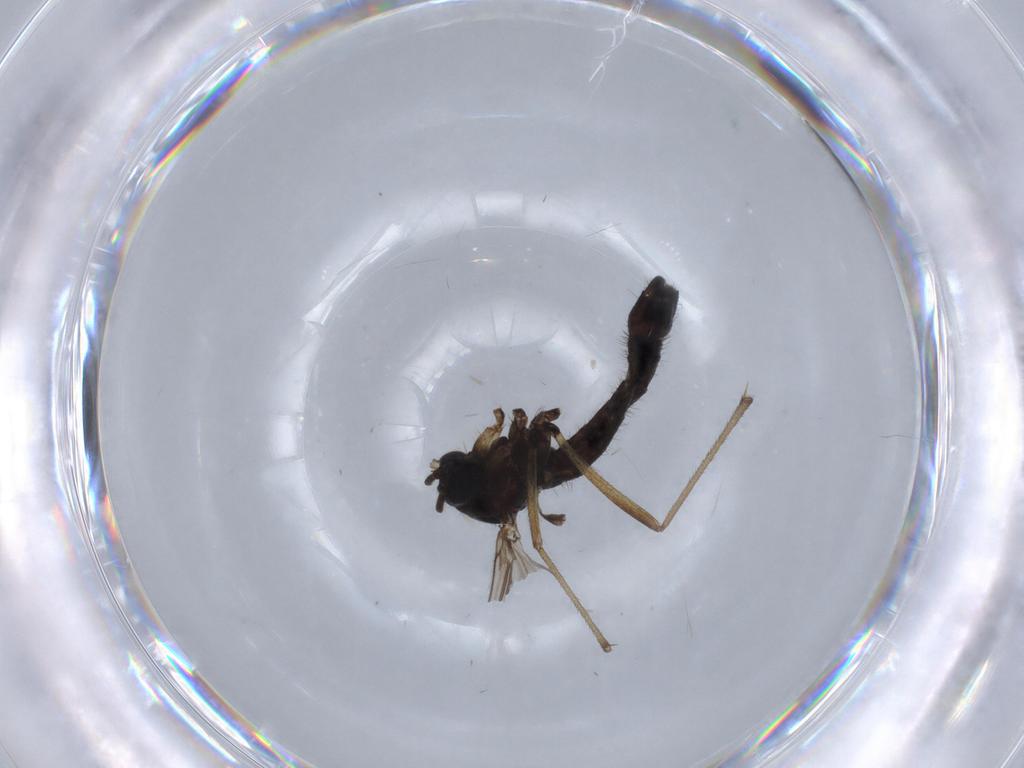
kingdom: Animalia
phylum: Arthropoda
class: Insecta
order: Diptera
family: Sciaridae
